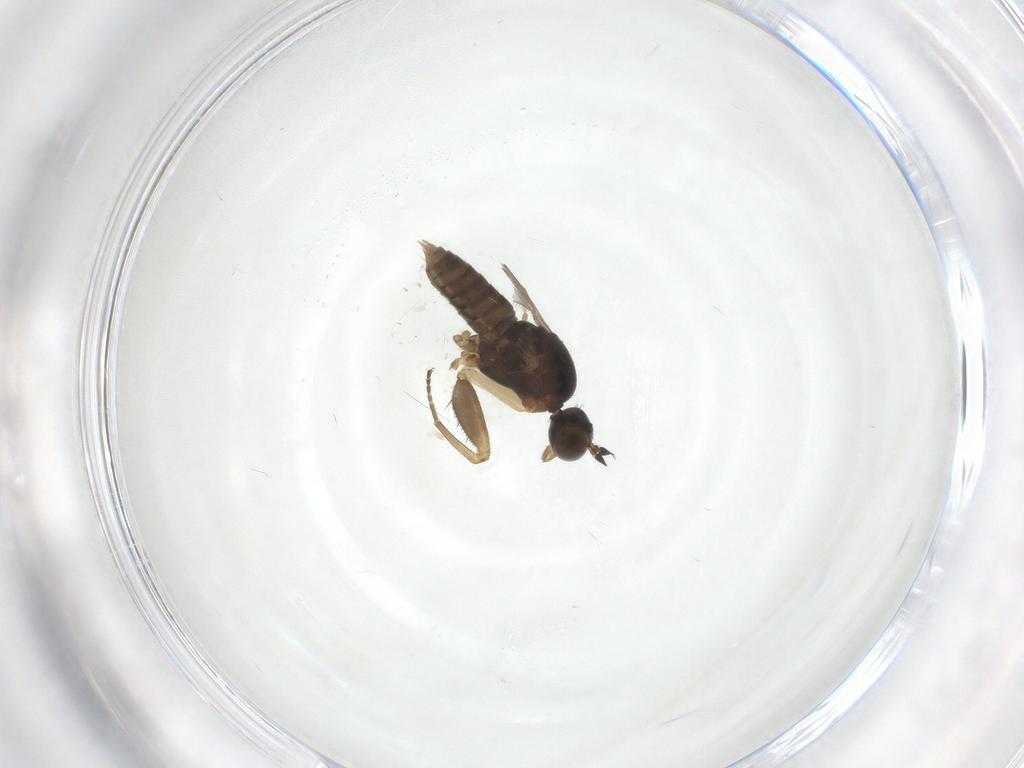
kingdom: Animalia
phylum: Arthropoda
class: Insecta
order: Diptera
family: Empididae
